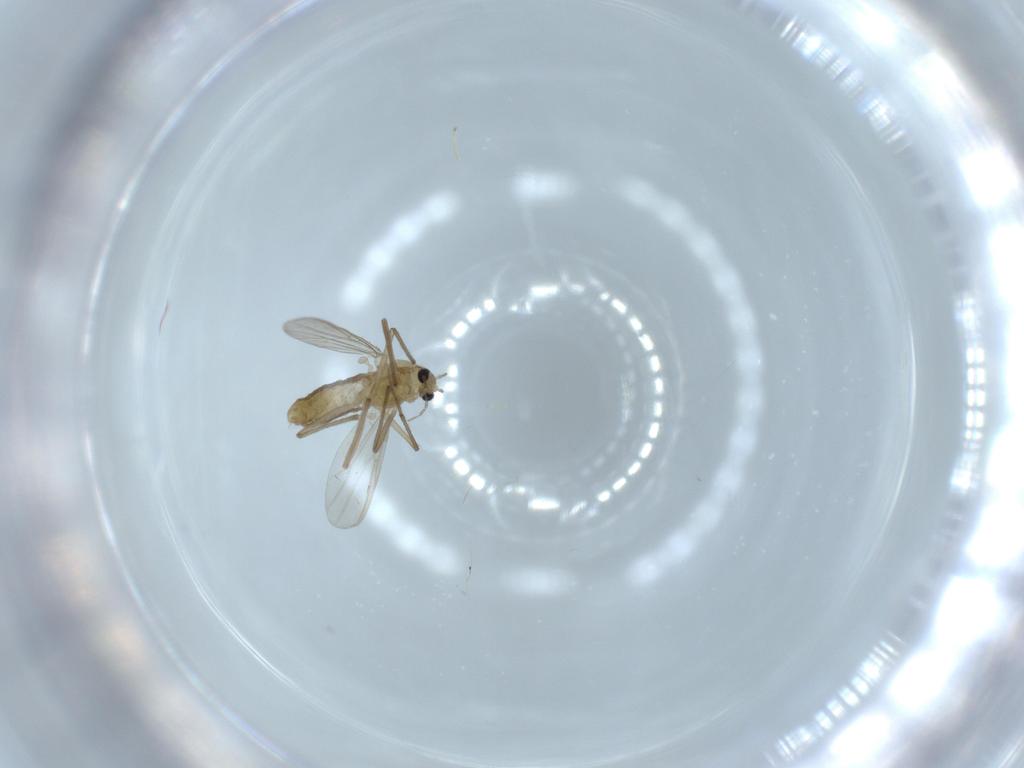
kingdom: Animalia
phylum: Arthropoda
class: Insecta
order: Diptera
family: Chironomidae
